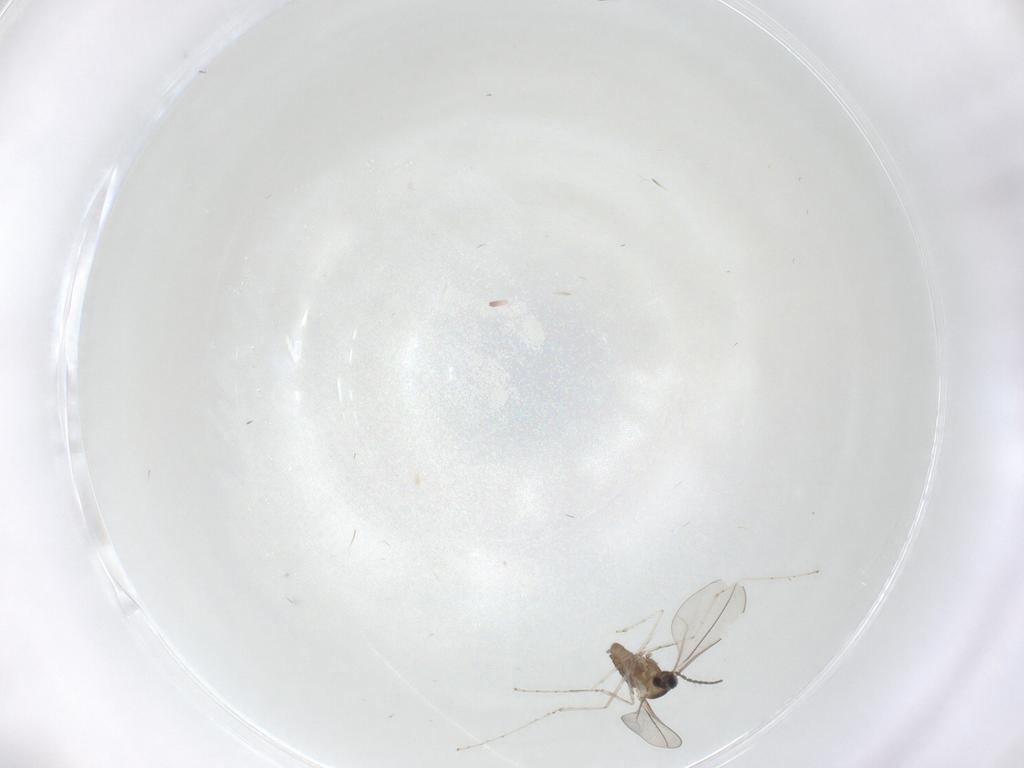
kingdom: Animalia
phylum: Arthropoda
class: Insecta
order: Diptera
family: Cecidomyiidae
